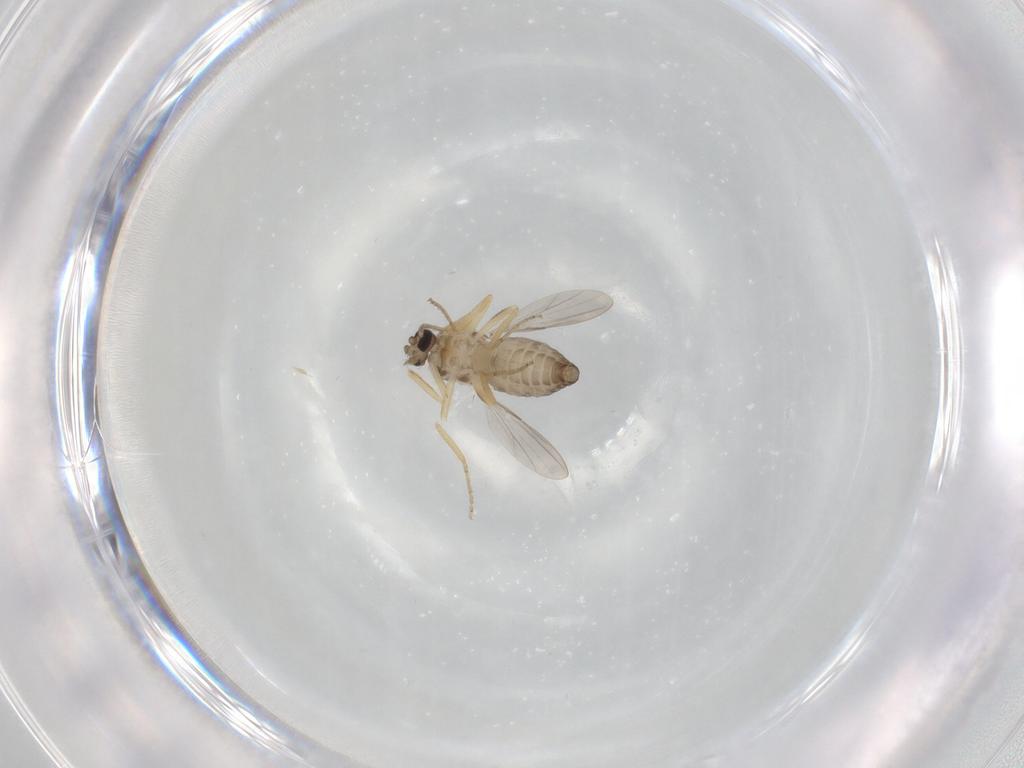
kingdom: Animalia
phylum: Arthropoda
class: Insecta
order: Diptera
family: Ceratopogonidae
